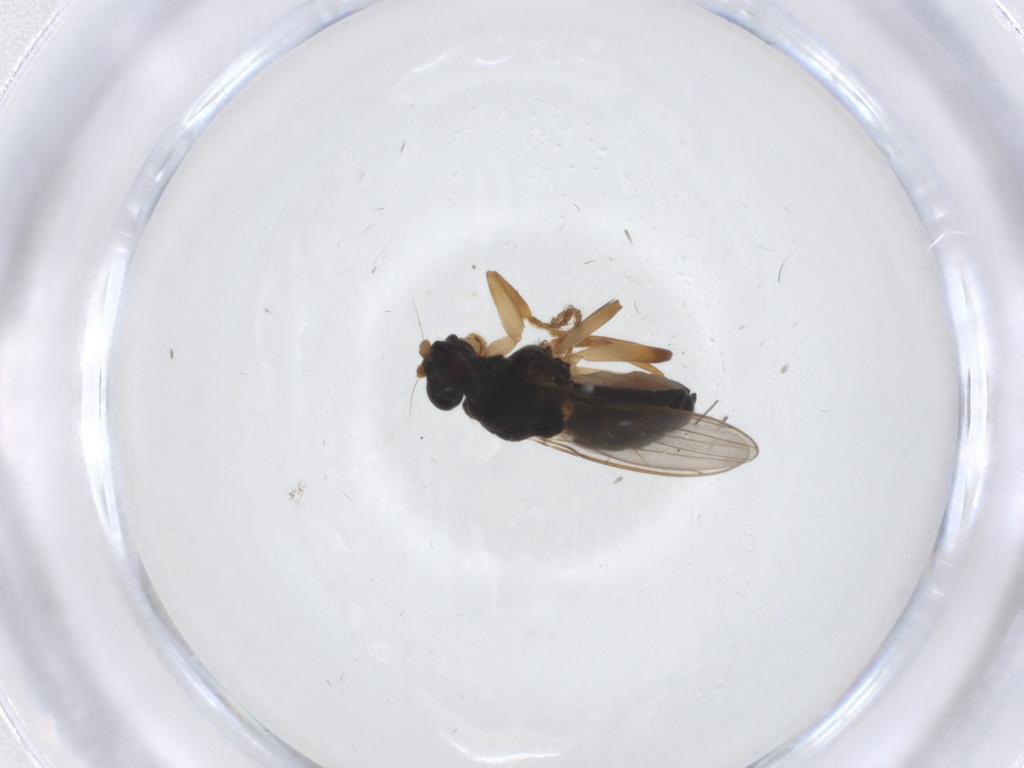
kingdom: Animalia
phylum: Arthropoda
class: Insecta
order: Diptera
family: Sphaeroceridae
